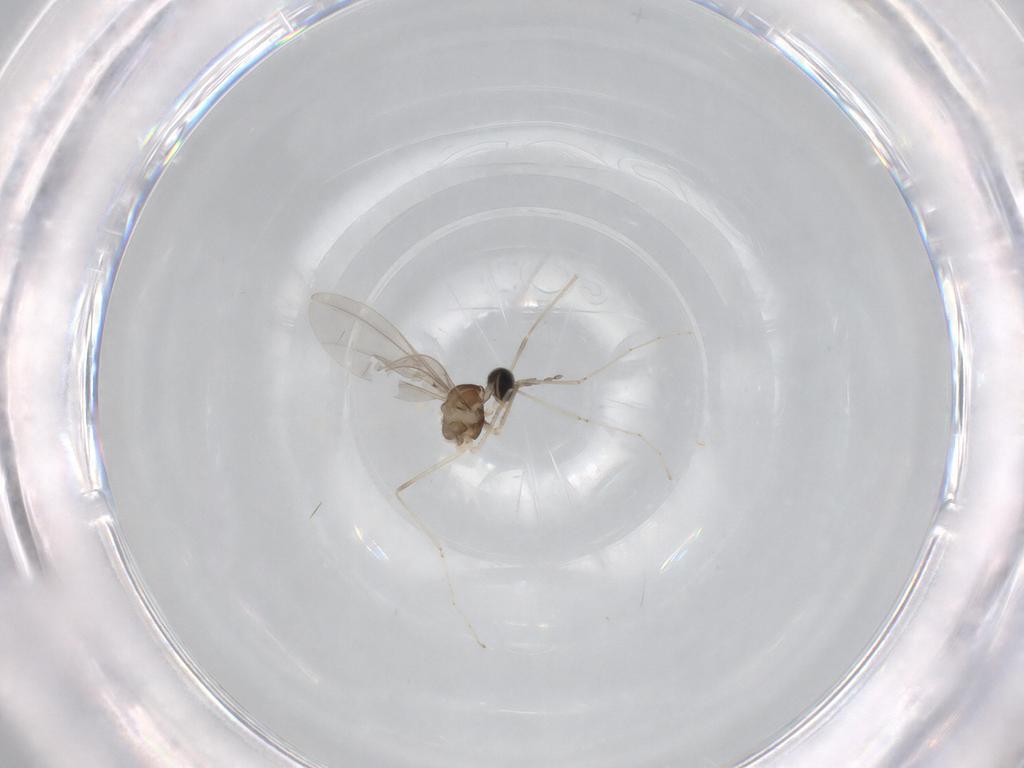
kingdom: Animalia
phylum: Arthropoda
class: Insecta
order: Diptera
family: Cecidomyiidae
